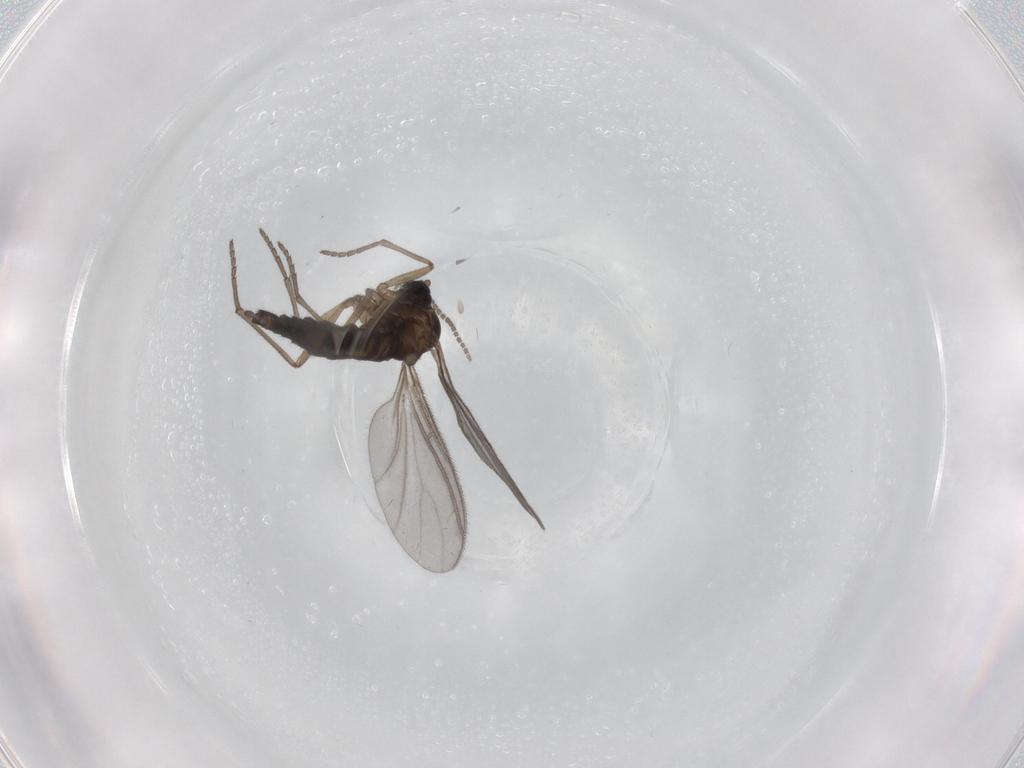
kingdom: Animalia
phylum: Arthropoda
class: Insecta
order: Diptera
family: Sciaridae
